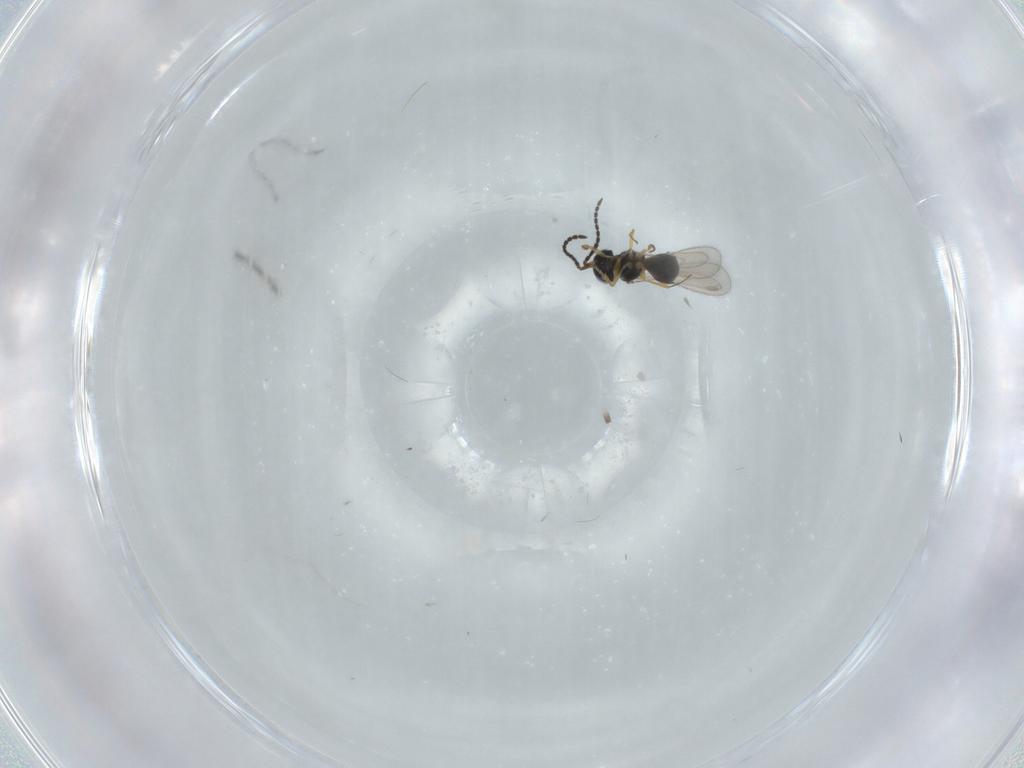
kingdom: Animalia
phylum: Arthropoda
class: Insecta
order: Hymenoptera
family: Scelionidae
